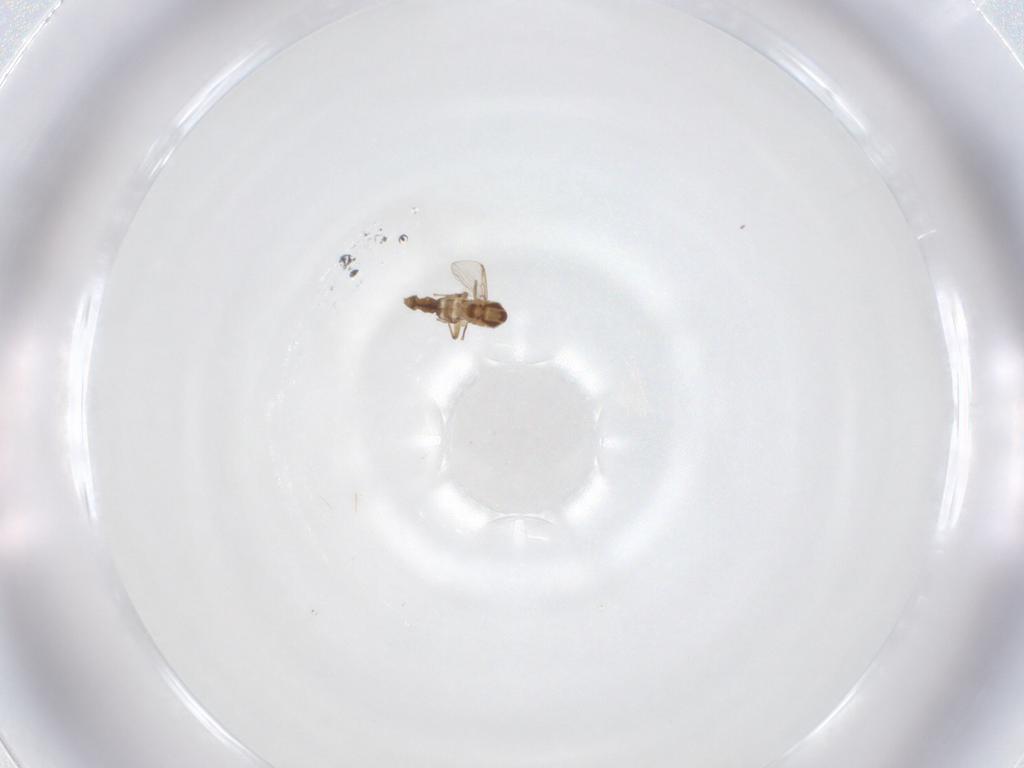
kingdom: Animalia
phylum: Arthropoda
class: Insecta
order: Diptera
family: Chironomidae
